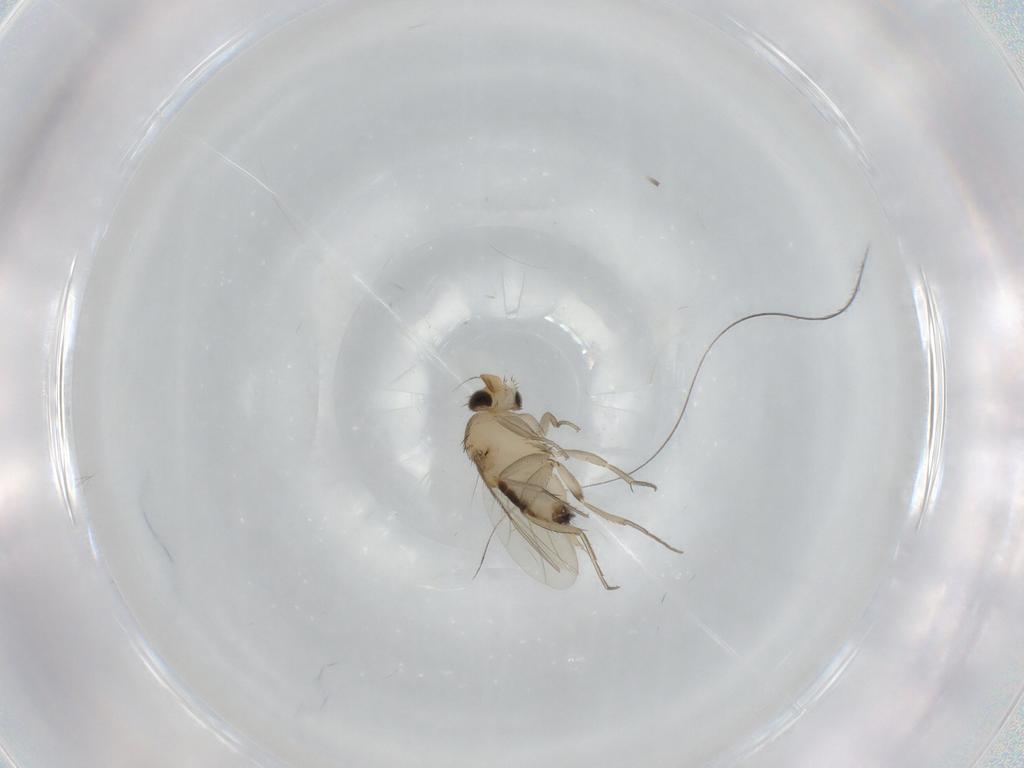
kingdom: Animalia
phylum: Arthropoda
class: Insecta
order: Diptera
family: Phoridae
